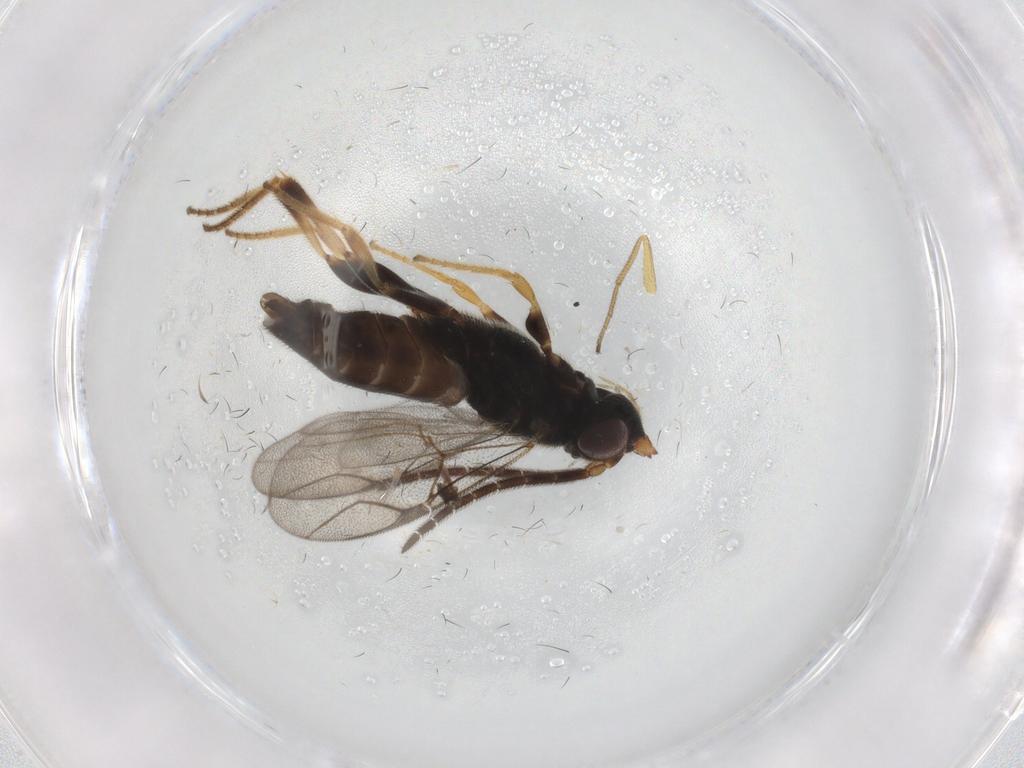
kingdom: Animalia
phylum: Arthropoda
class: Insecta
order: Hymenoptera
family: Dryinidae
